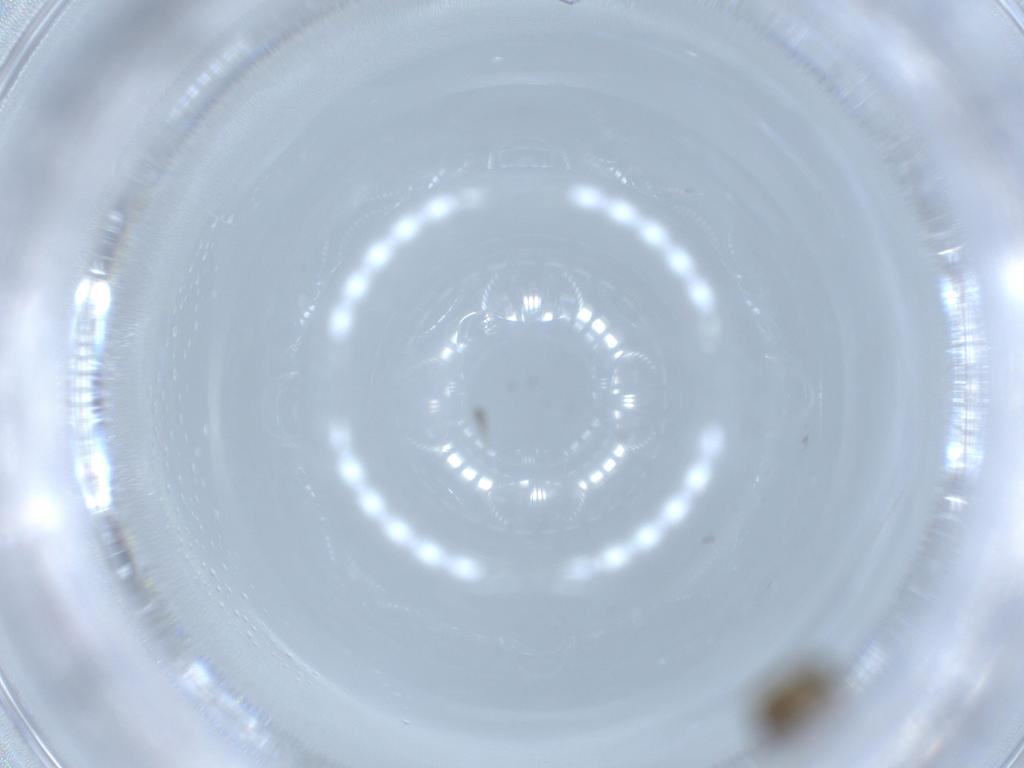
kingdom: Animalia
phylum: Arthropoda
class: Insecta
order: Diptera
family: Chironomidae
